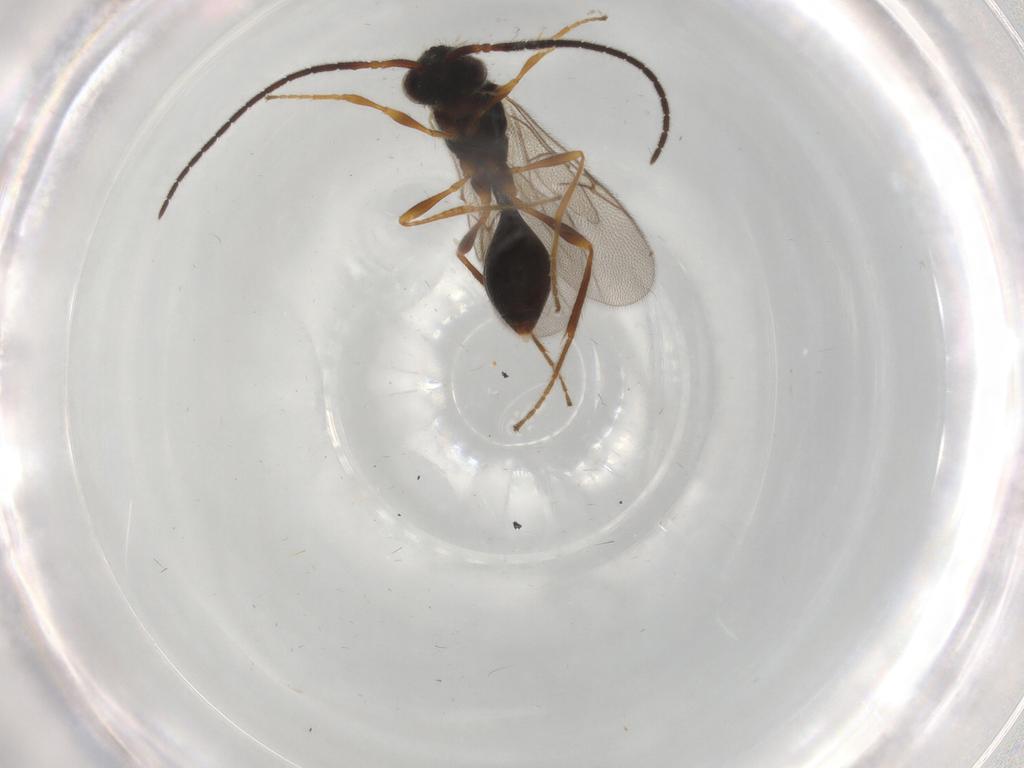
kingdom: Animalia
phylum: Arthropoda
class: Insecta
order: Hymenoptera
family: Diapriidae
